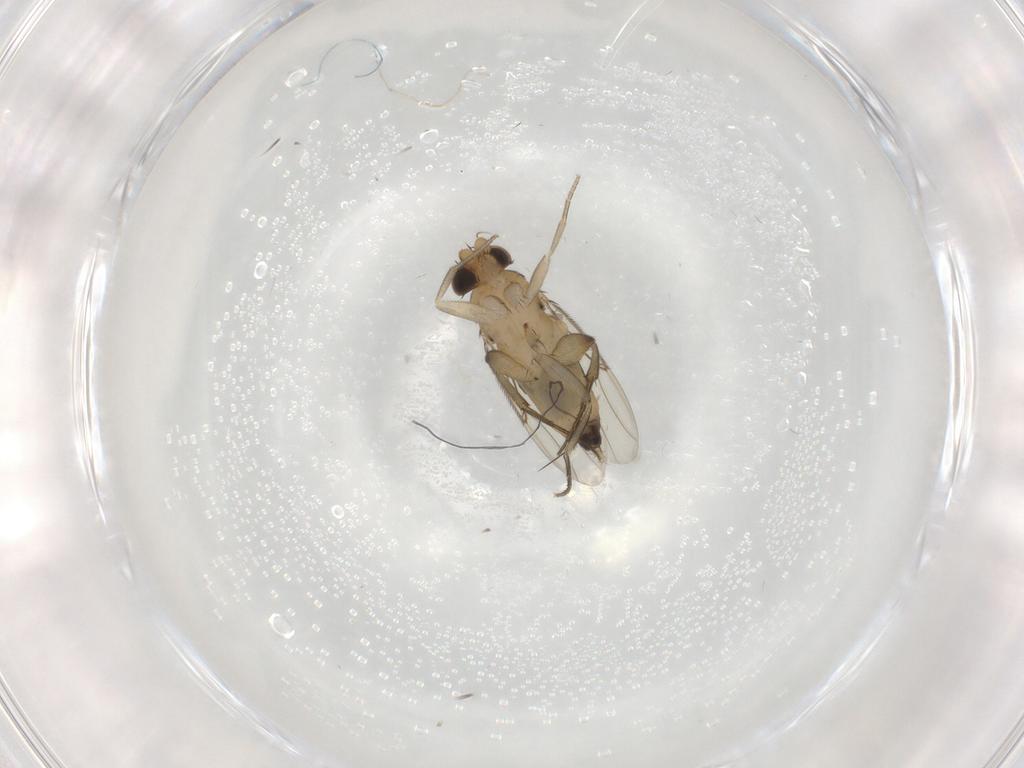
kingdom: Animalia
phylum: Arthropoda
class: Insecta
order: Diptera
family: Phoridae
